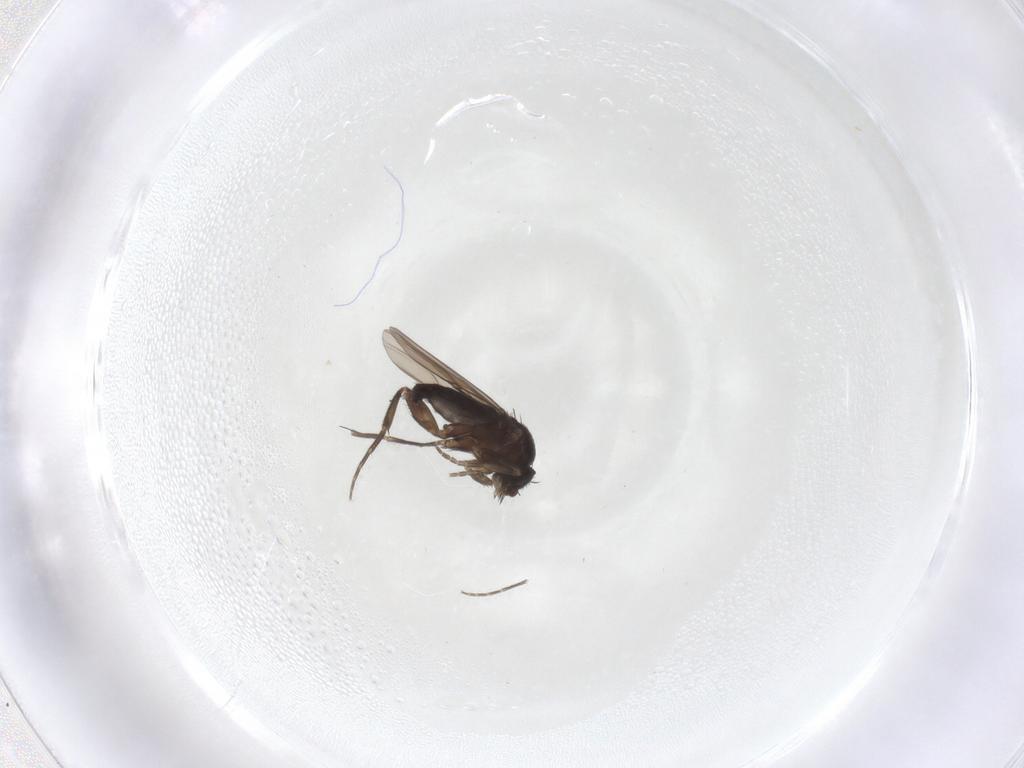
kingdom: Animalia
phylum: Arthropoda
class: Insecta
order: Diptera
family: Phoridae
